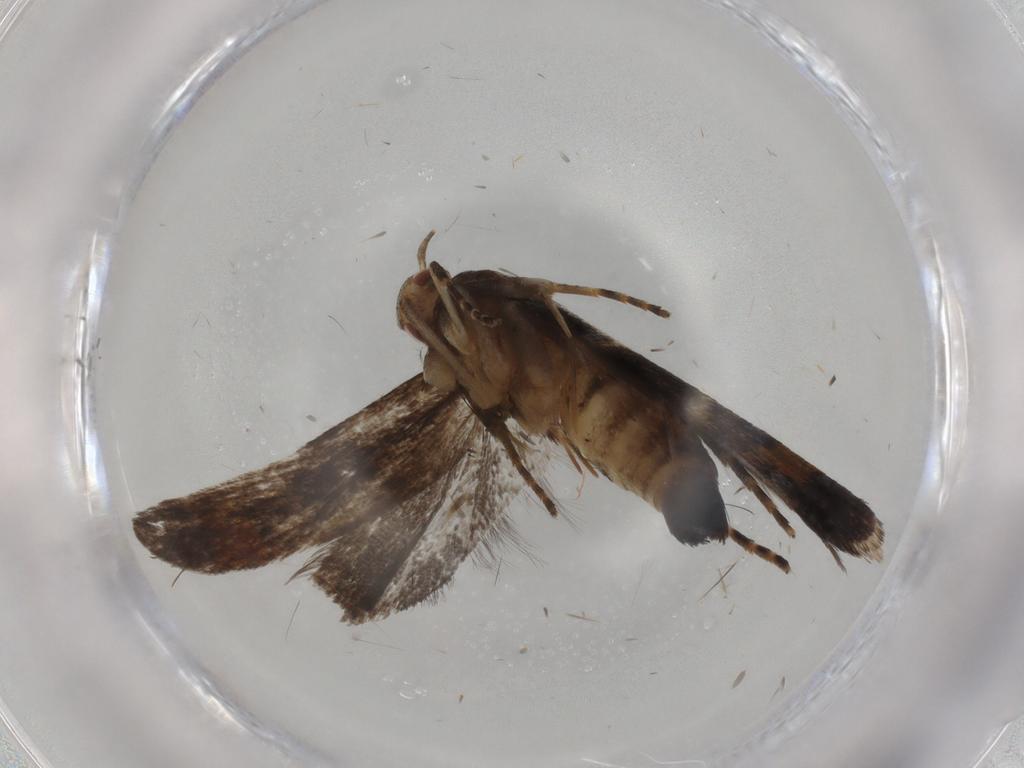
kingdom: Animalia
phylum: Arthropoda
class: Insecta
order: Lepidoptera
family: Gelechiidae
